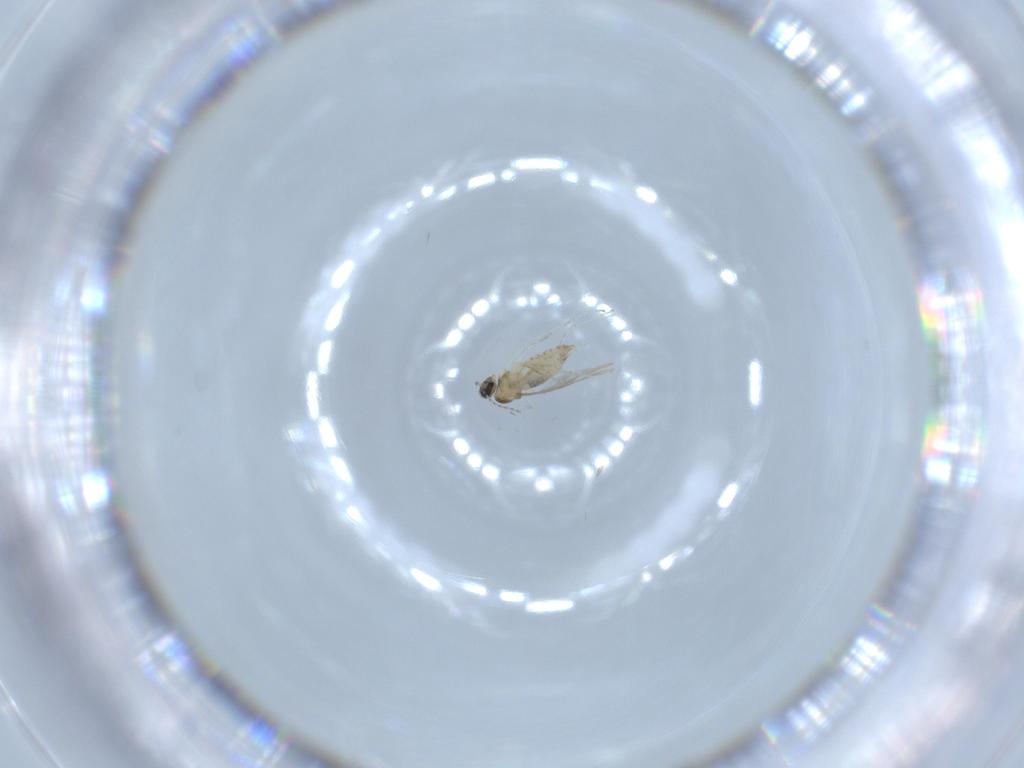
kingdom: Animalia
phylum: Arthropoda
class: Insecta
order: Diptera
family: Cecidomyiidae
